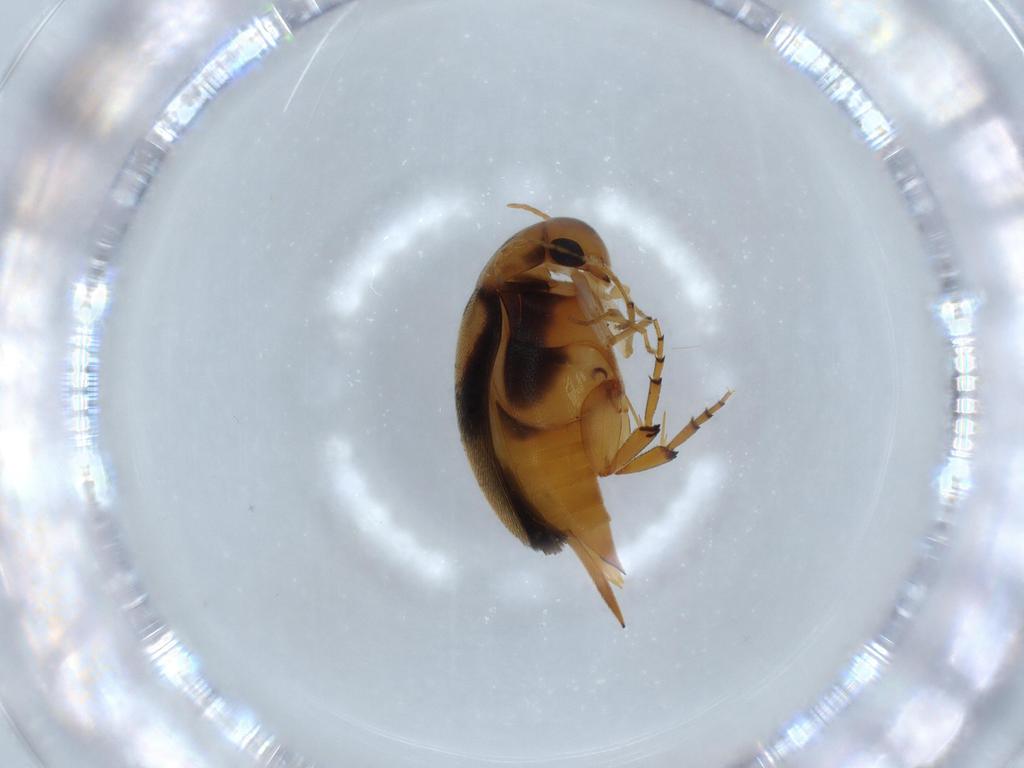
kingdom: Animalia
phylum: Arthropoda
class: Insecta
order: Coleoptera
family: Mordellidae
